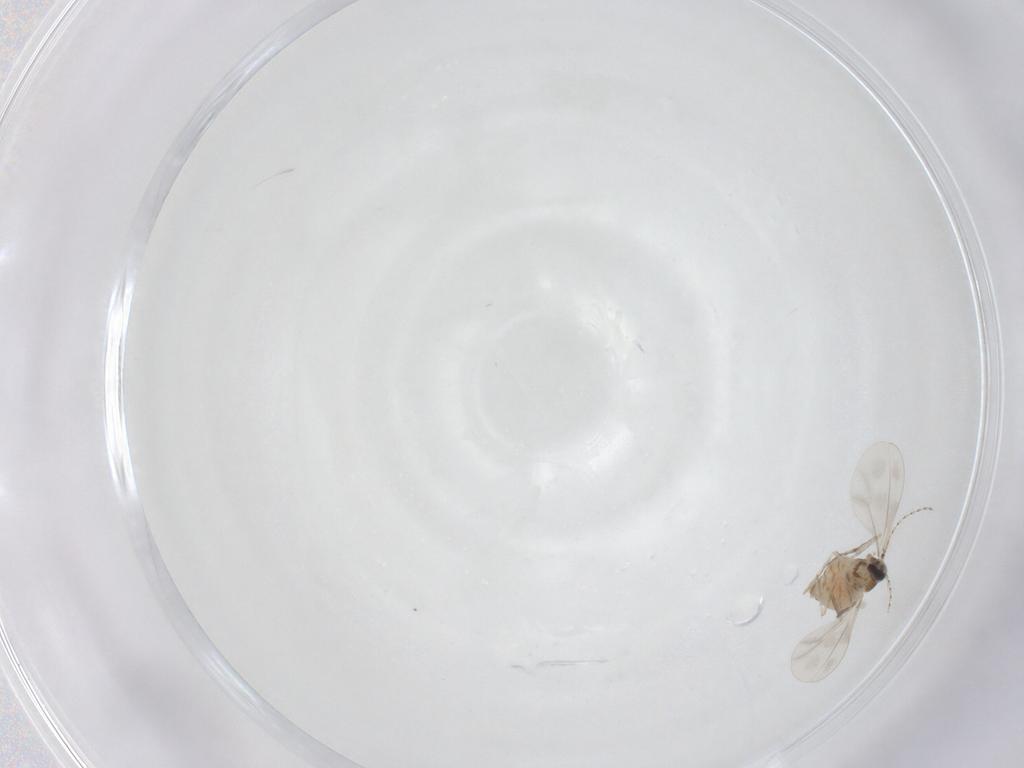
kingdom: Animalia
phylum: Arthropoda
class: Insecta
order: Diptera
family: Cecidomyiidae
